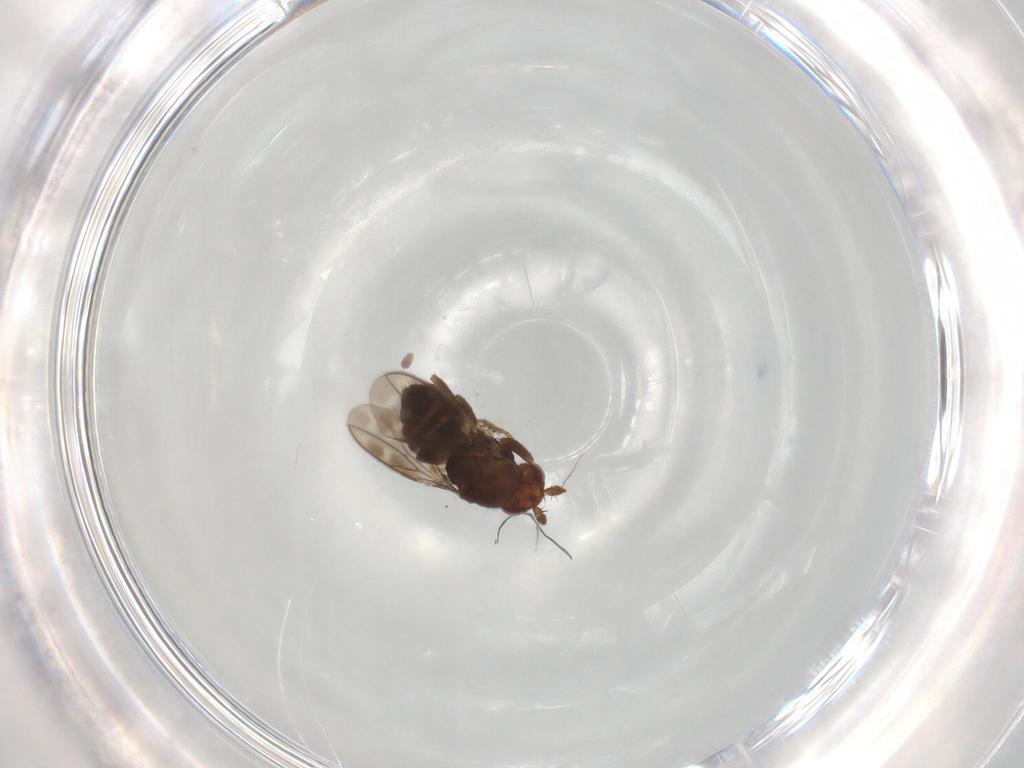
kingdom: Animalia
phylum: Arthropoda
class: Insecta
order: Diptera
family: Sphaeroceridae
